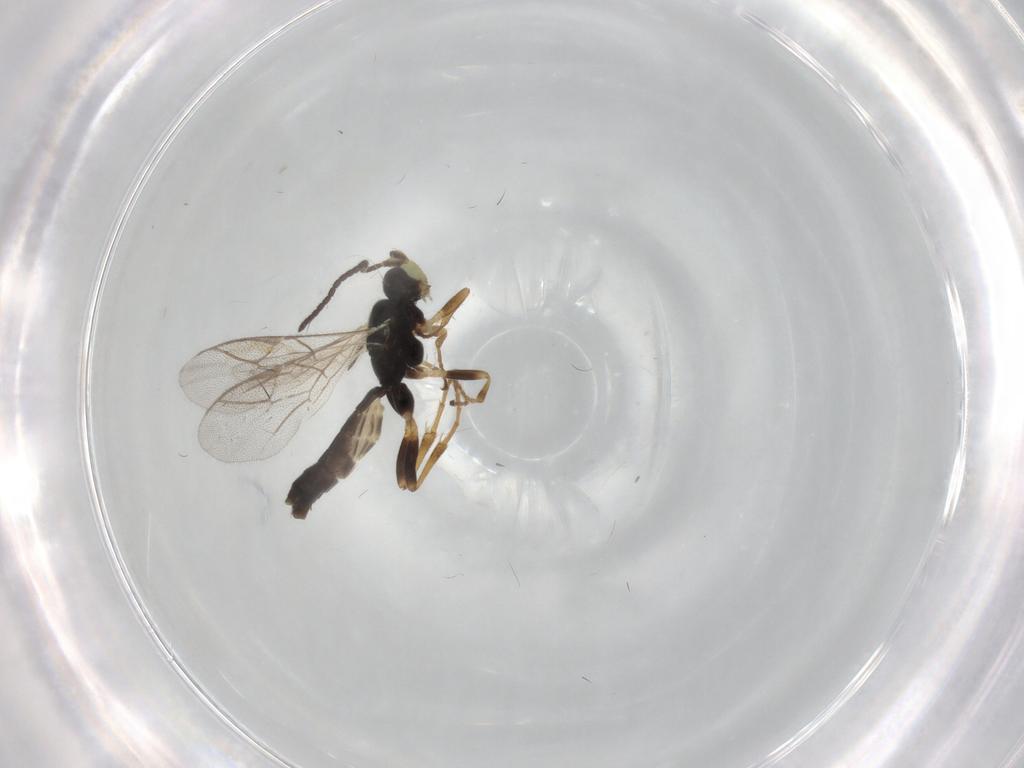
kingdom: Animalia
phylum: Arthropoda
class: Insecta
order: Hymenoptera
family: Ichneumonidae
